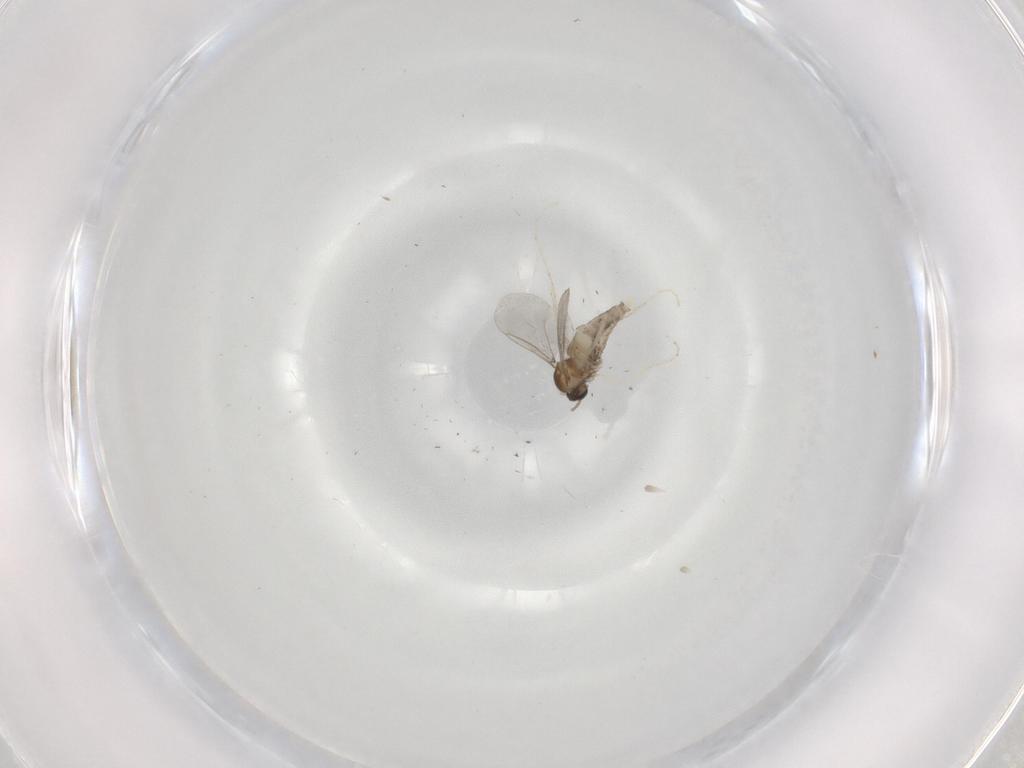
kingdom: Animalia
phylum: Arthropoda
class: Insecta
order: Diptera
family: Cecidomyiidae
